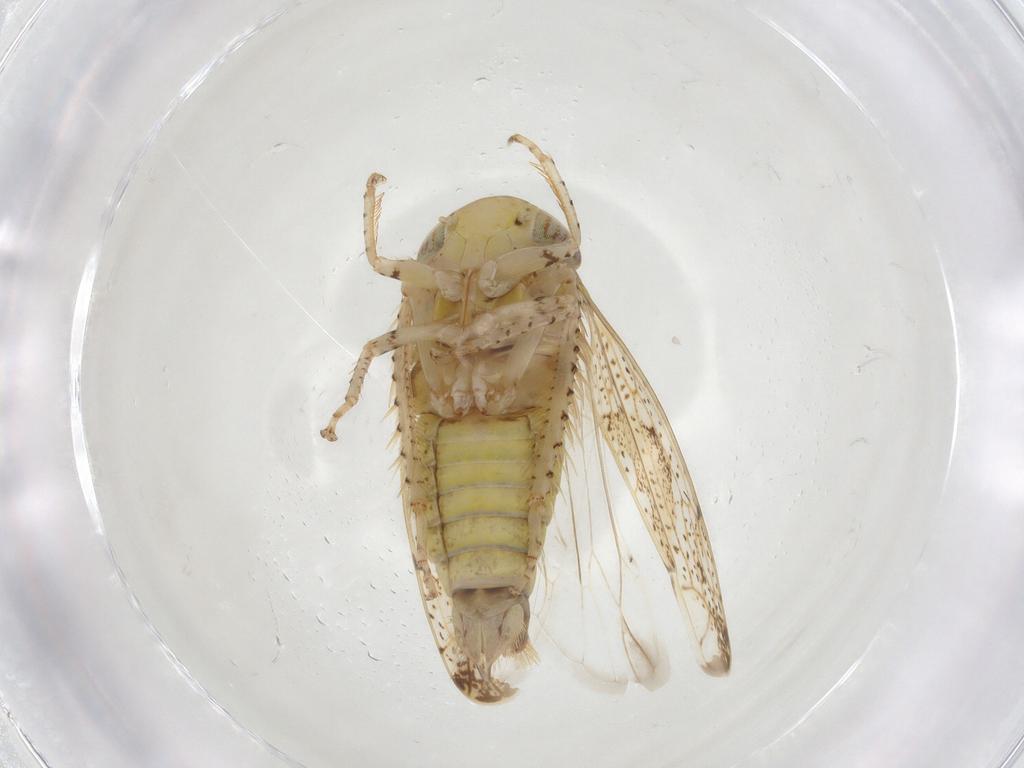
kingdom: Animalia
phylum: Arthropoda
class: Insecta
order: Hemiptera
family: Cicadellidae
